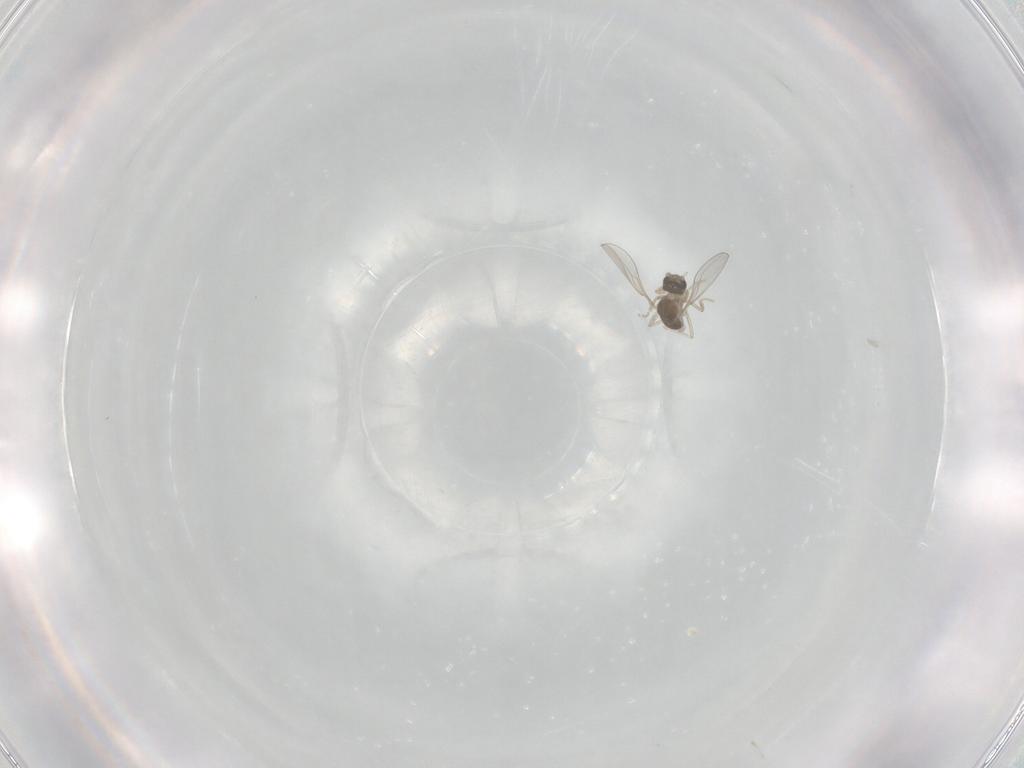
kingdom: Animalia
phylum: Arthropoda
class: Insecta
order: Diptera
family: Cecidomyiidae
